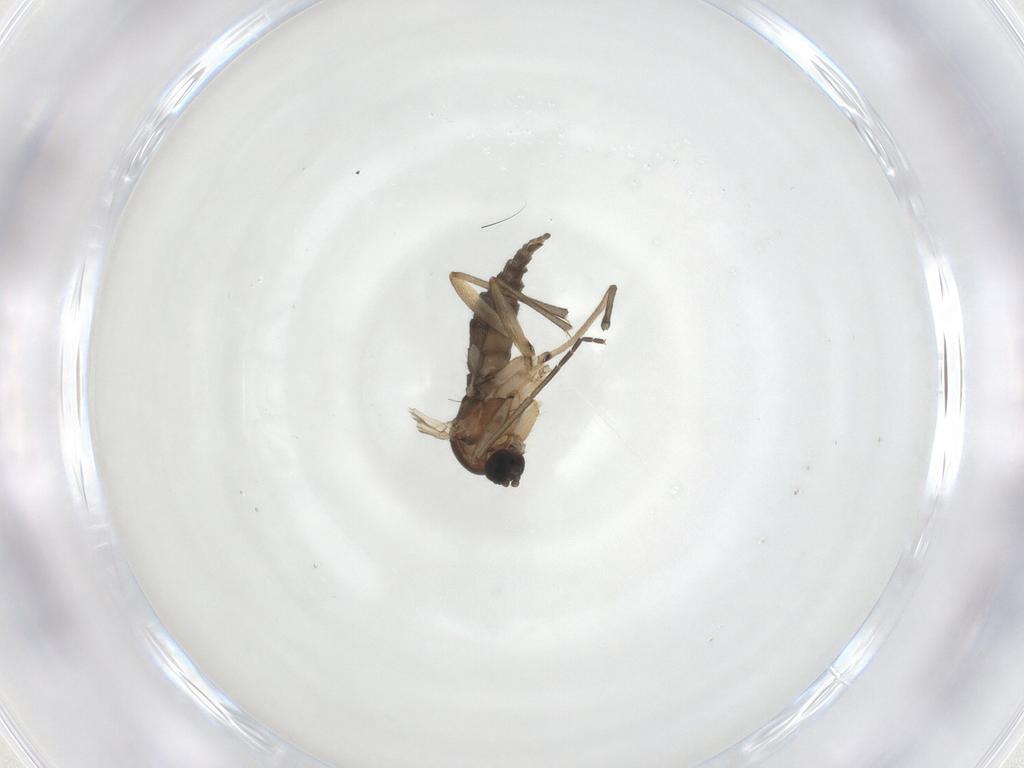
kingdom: Animalia
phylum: Arthropoda
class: Insecta
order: Diptera
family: Sciaridae
